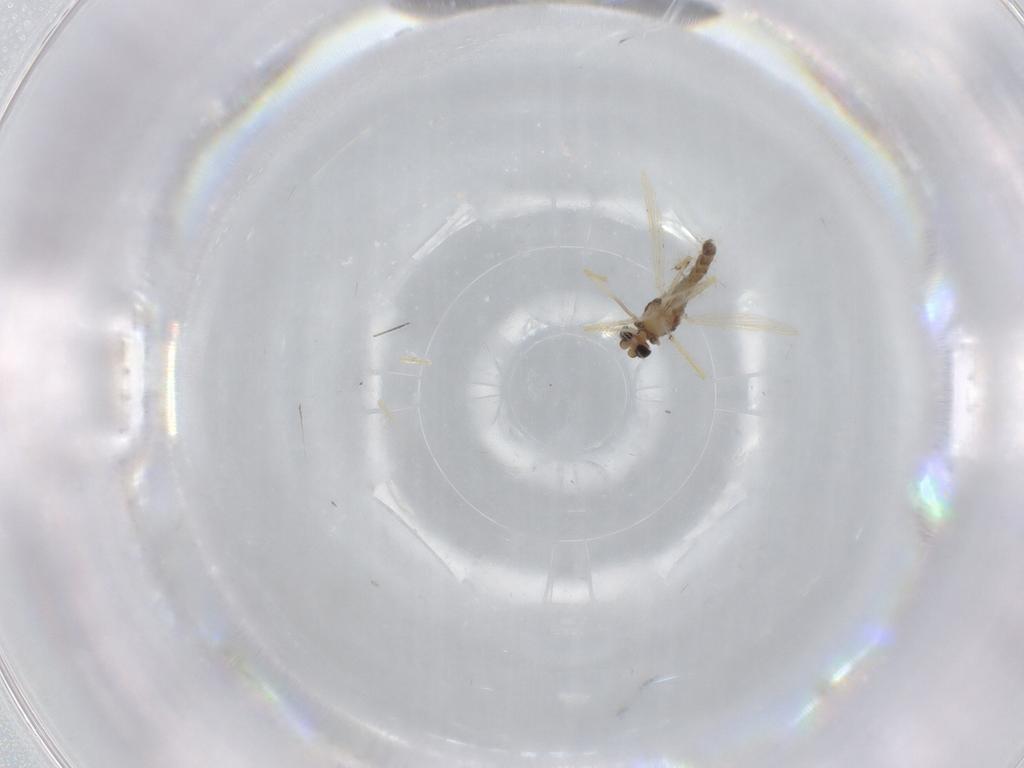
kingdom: Animalia
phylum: Arthropoda
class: Insecta
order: Diptera
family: Chironomidae
